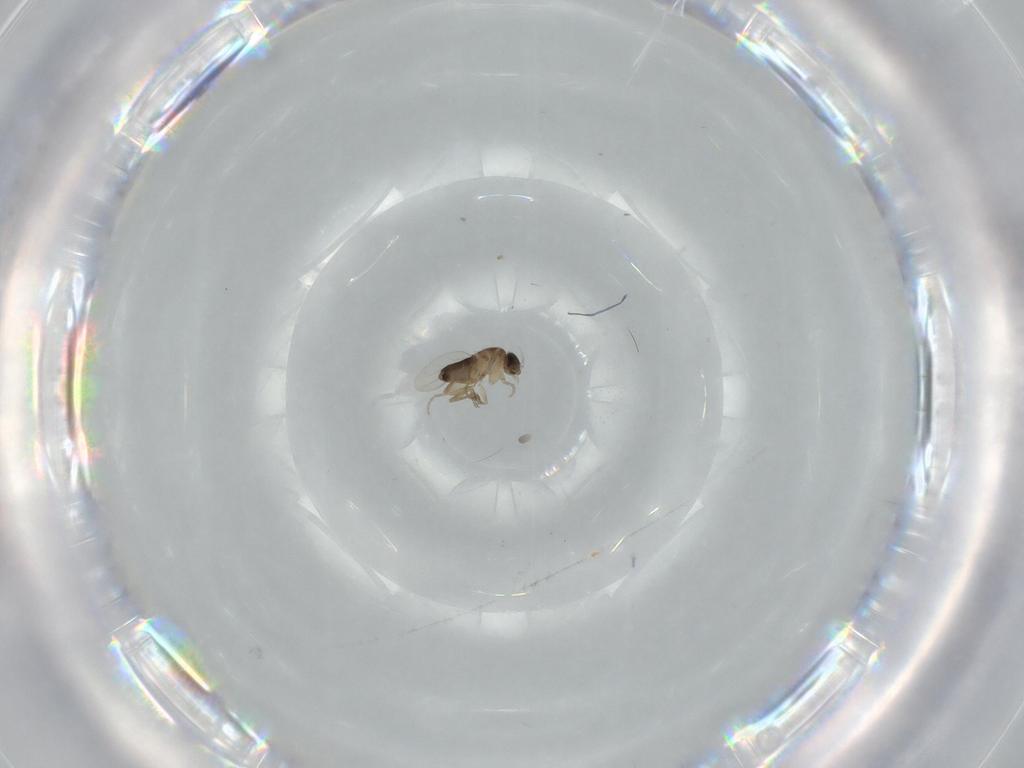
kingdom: Animalia
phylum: Arthropoda
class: Insecta
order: Diptera
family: Phoridae
